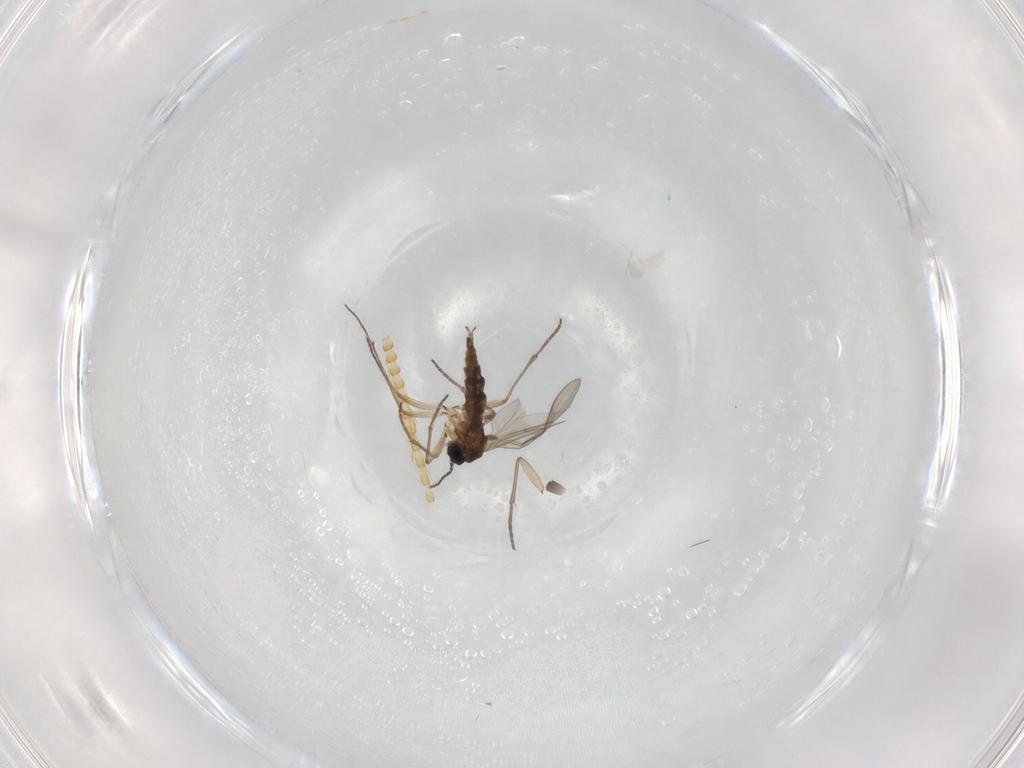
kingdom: Animalia
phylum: Arthropoda
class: Insecta
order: Diptera
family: Sciaridae
